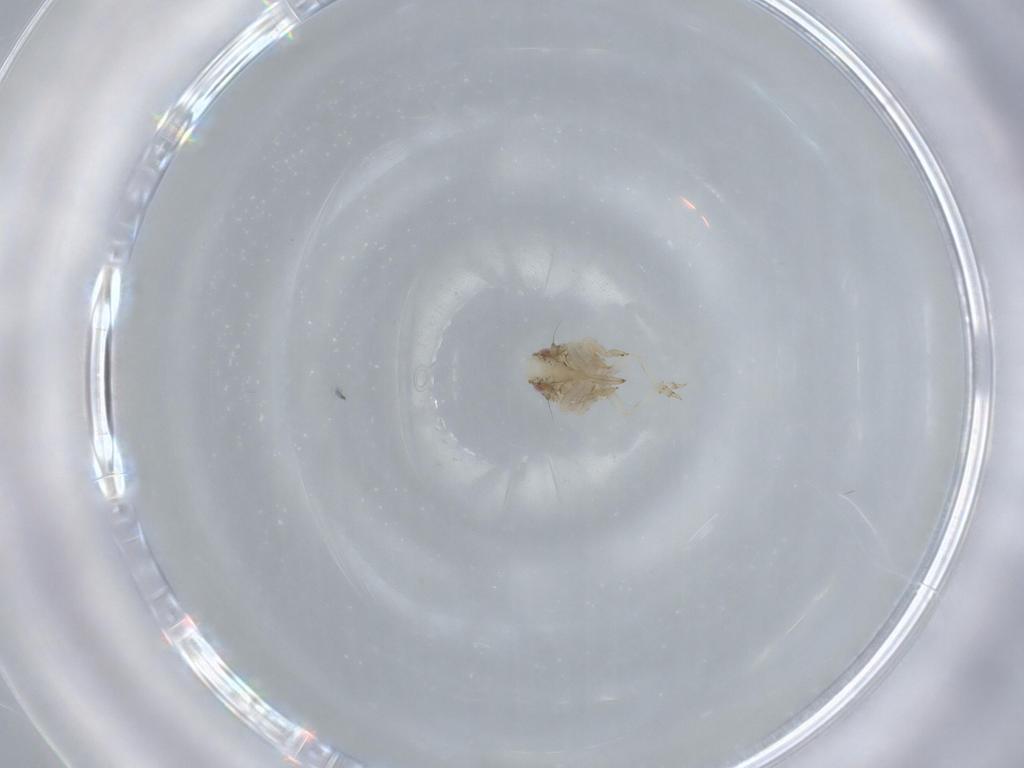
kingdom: Animalia
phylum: Arthropoda
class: Insecta
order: Hemiptera
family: Acanaloniidae
